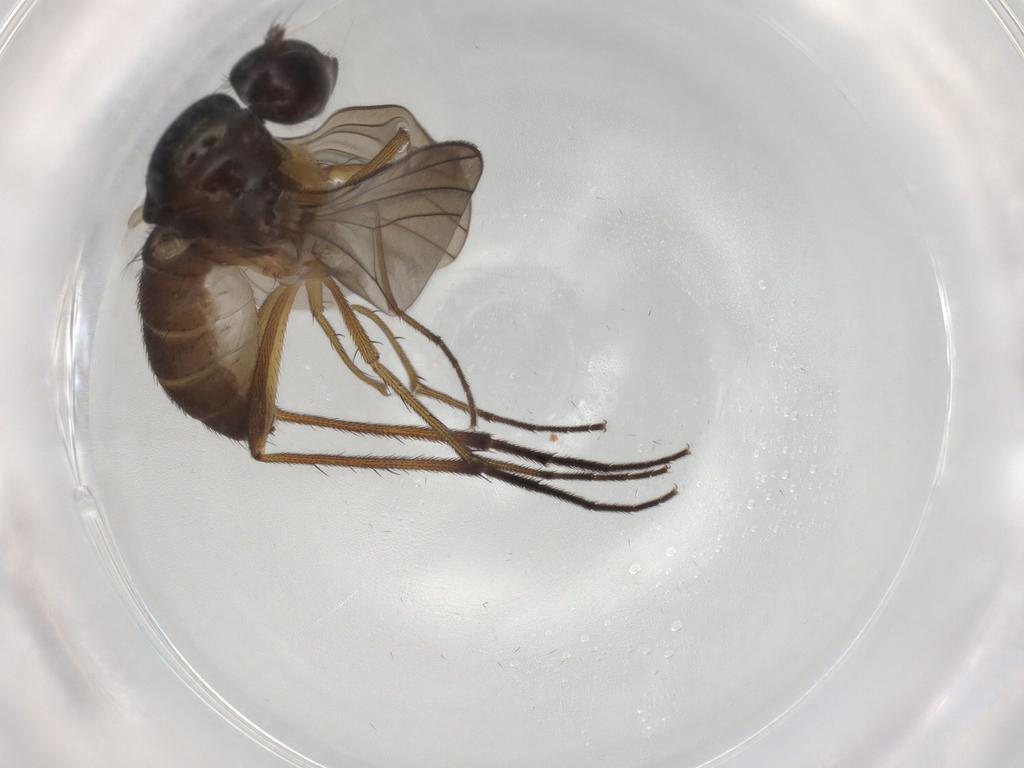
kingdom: Animalia
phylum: Arthropoda
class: Insecta
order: Diptera
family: Dolichopodidae
